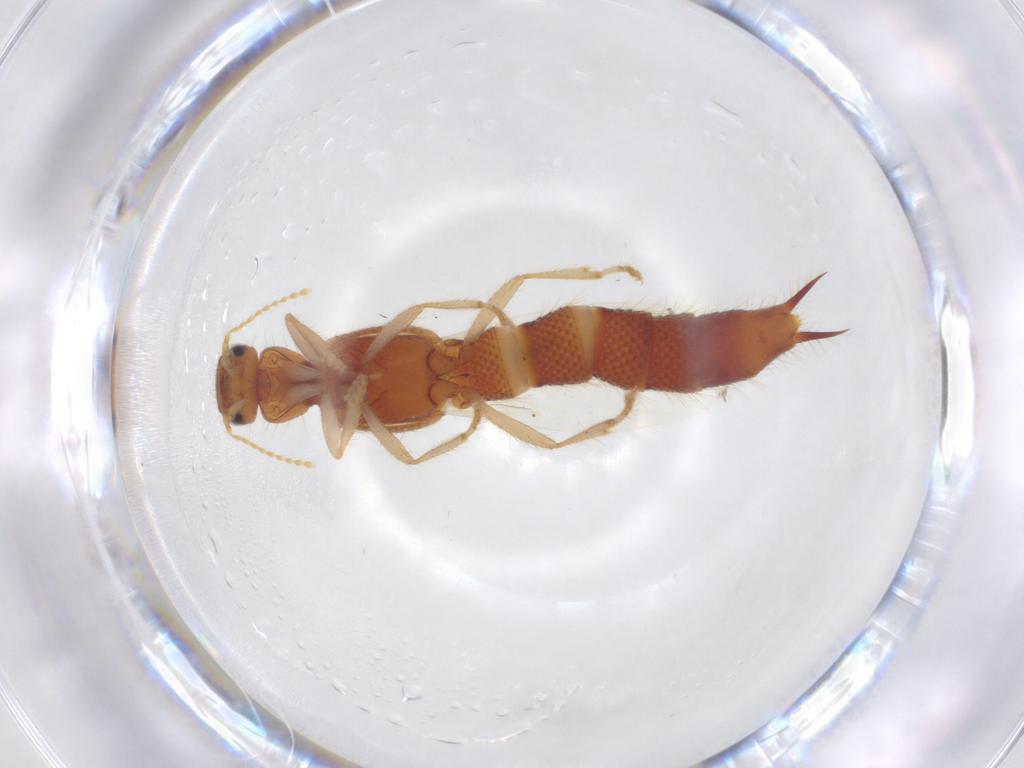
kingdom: Animalia
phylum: Arthropoda
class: Insecta
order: Coleoptera
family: Staphylinidae
